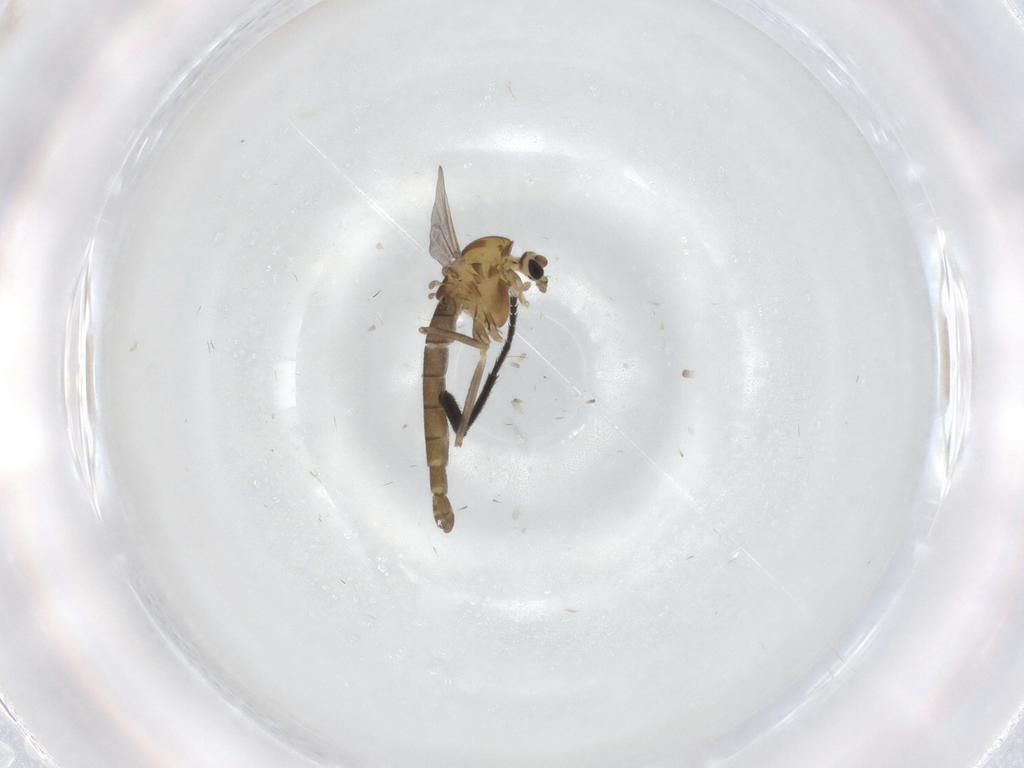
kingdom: Animalia
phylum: Arthropoda
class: Insecta
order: Diptera
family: Chironomidae
